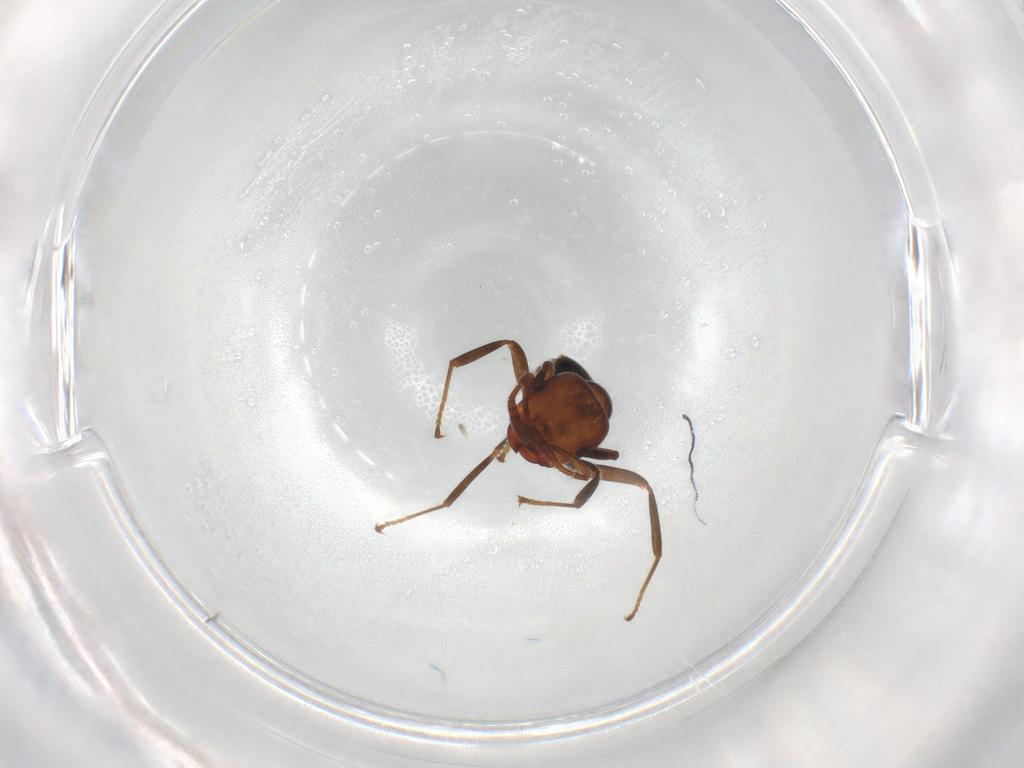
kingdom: Animalia
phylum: Arthropoda
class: Insecta
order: Hymenoptera
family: Formicidae
